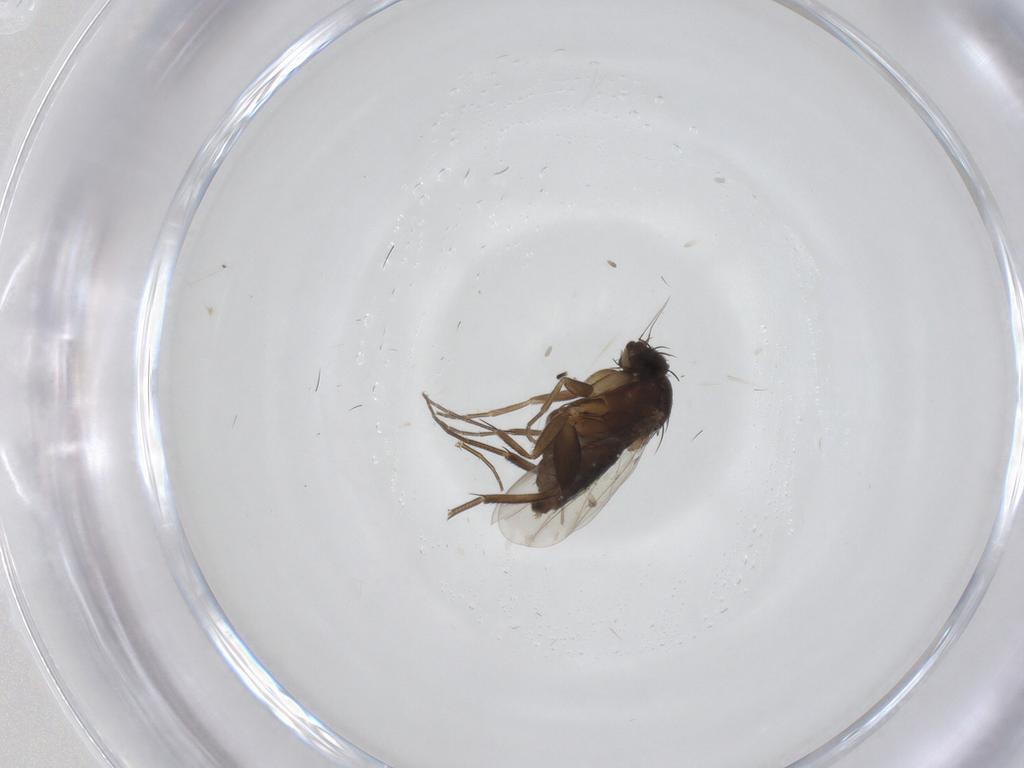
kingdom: Animalia
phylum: Arthropoda
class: Insecta
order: Diptera
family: Phoridae
